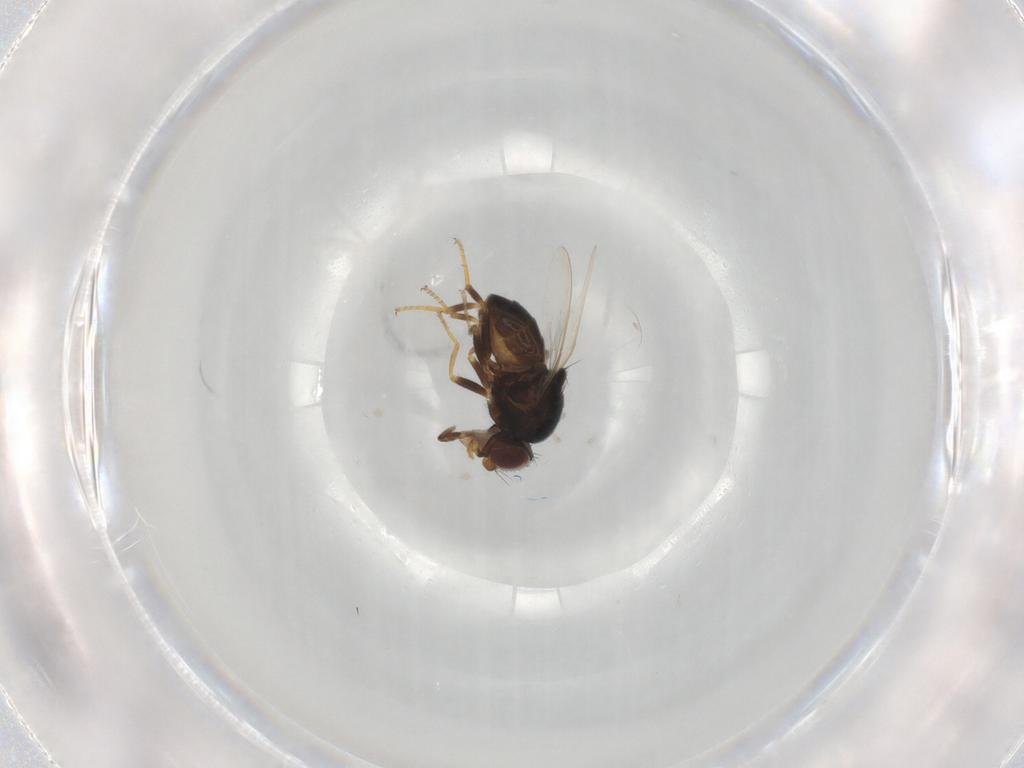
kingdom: Animalia
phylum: Arthropoda
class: Insecta
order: Diptera
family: Chloropidae
